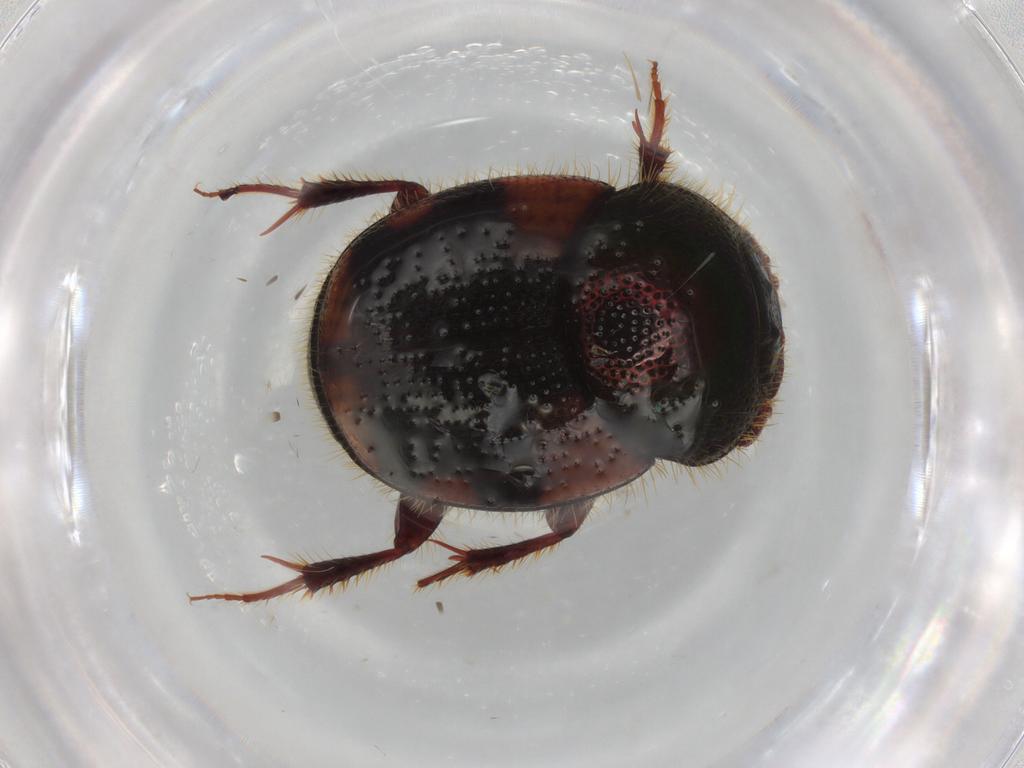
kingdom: Animalia
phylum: Arthropoda
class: Insecta
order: Coleoptera
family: Scarabaeidae
